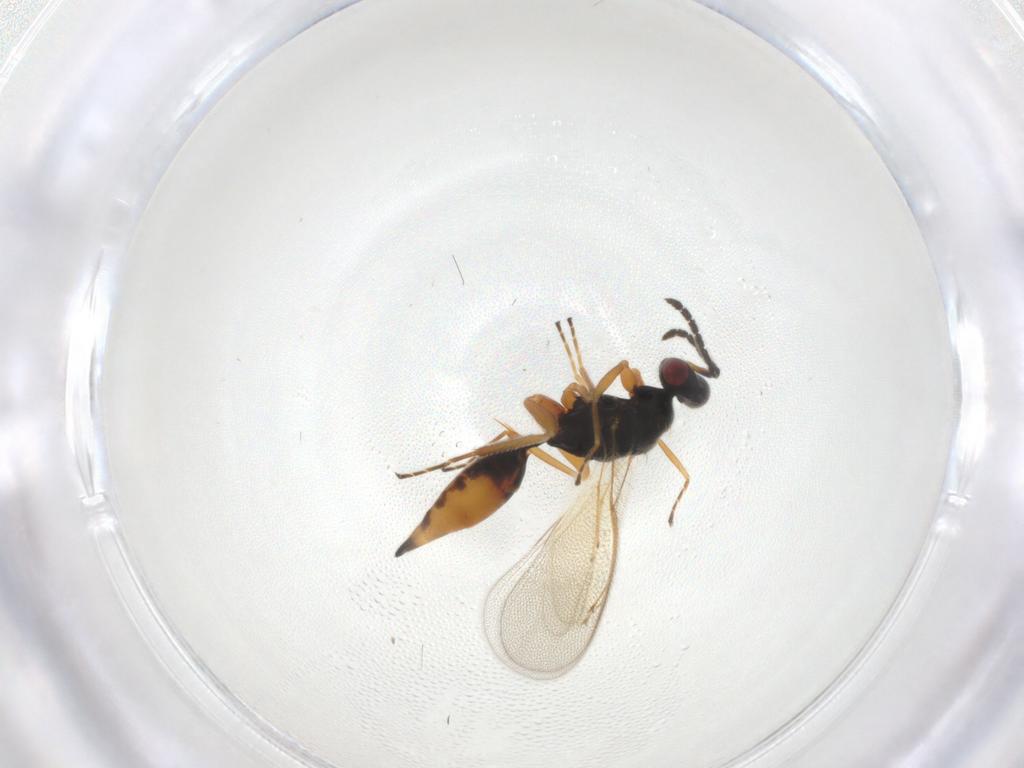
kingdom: Animalia
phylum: Arthropoda
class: Insecta
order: Hymenoptera
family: Eulophidae
